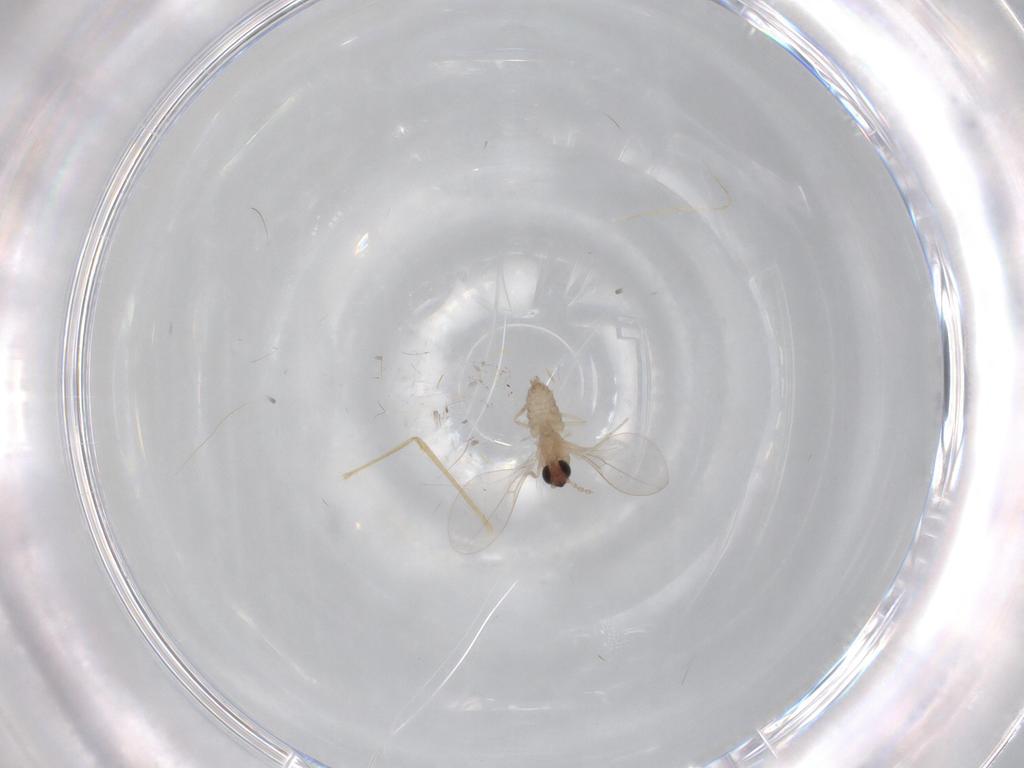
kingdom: Animalia
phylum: Arthropoda
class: Insecta
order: Diptera
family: Cecidomyiidae
